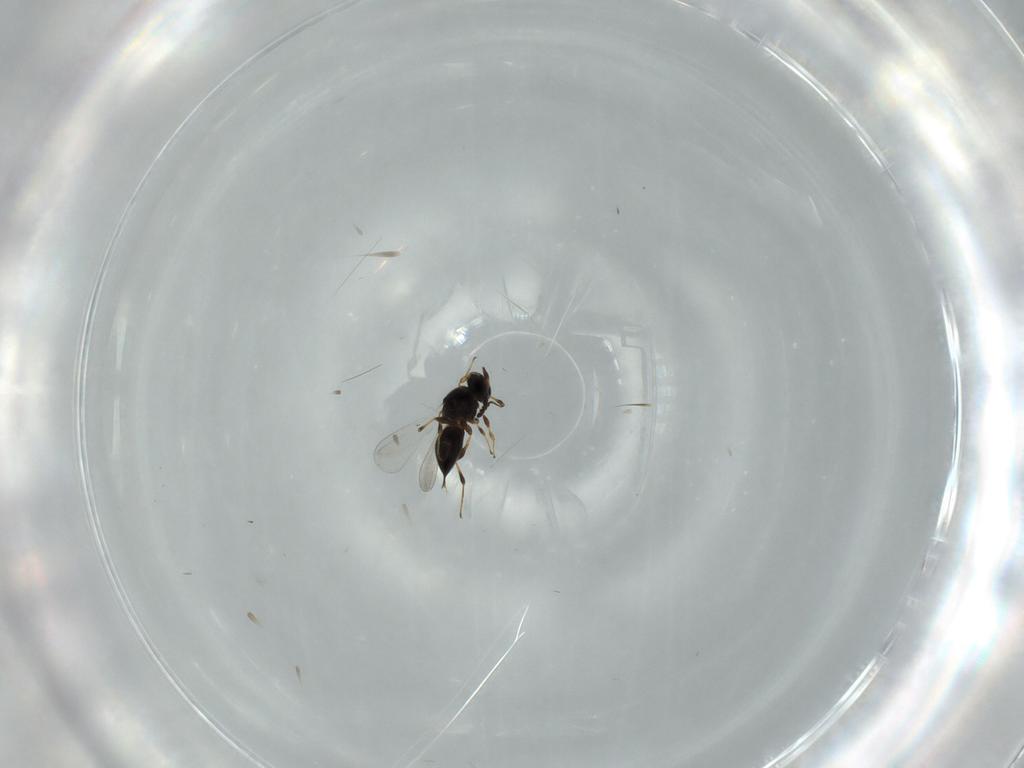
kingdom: Animalia
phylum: Arthropoda
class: Insecta
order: Hymenoptera
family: Platygastridae
